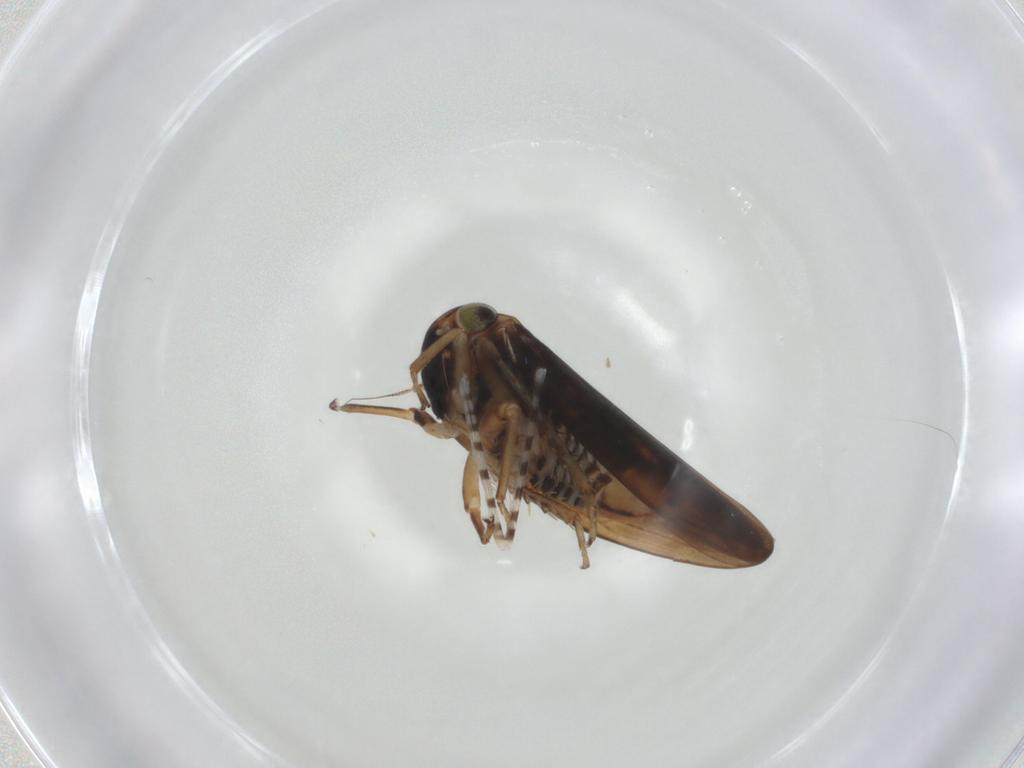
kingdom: Animalia
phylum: Arthropoda
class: Insecta
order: Hemiptera
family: Cicadellidae
